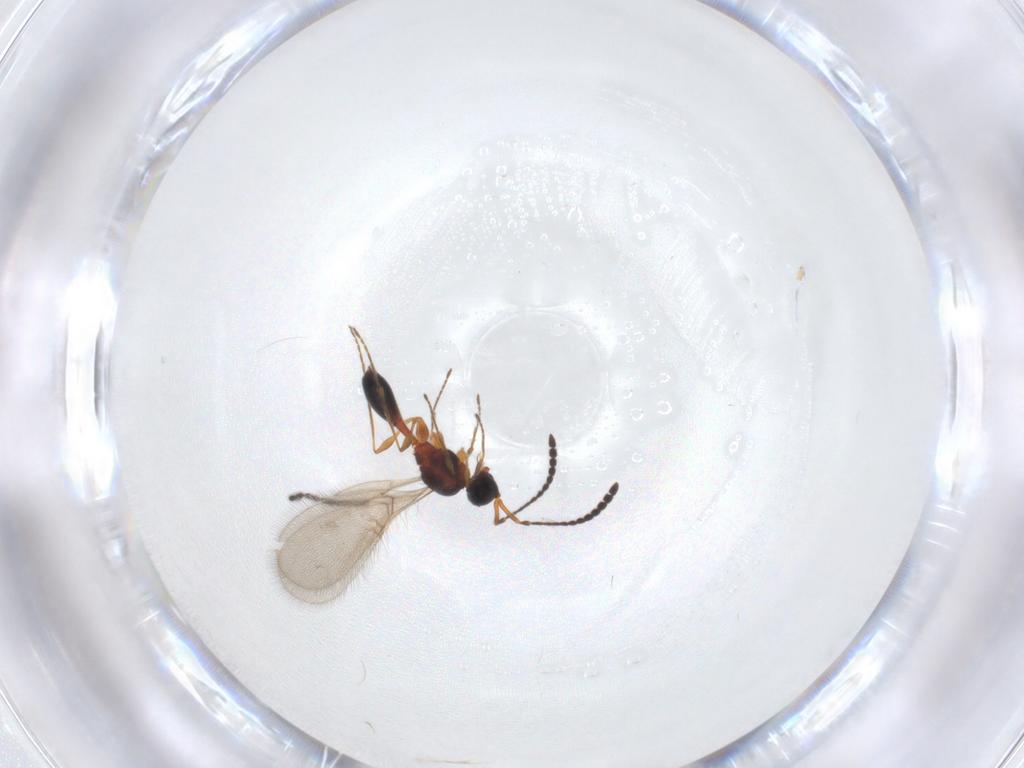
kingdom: Animalia
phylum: Arthropoda
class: Insecta
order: Hymenoptera
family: Diapriidae
